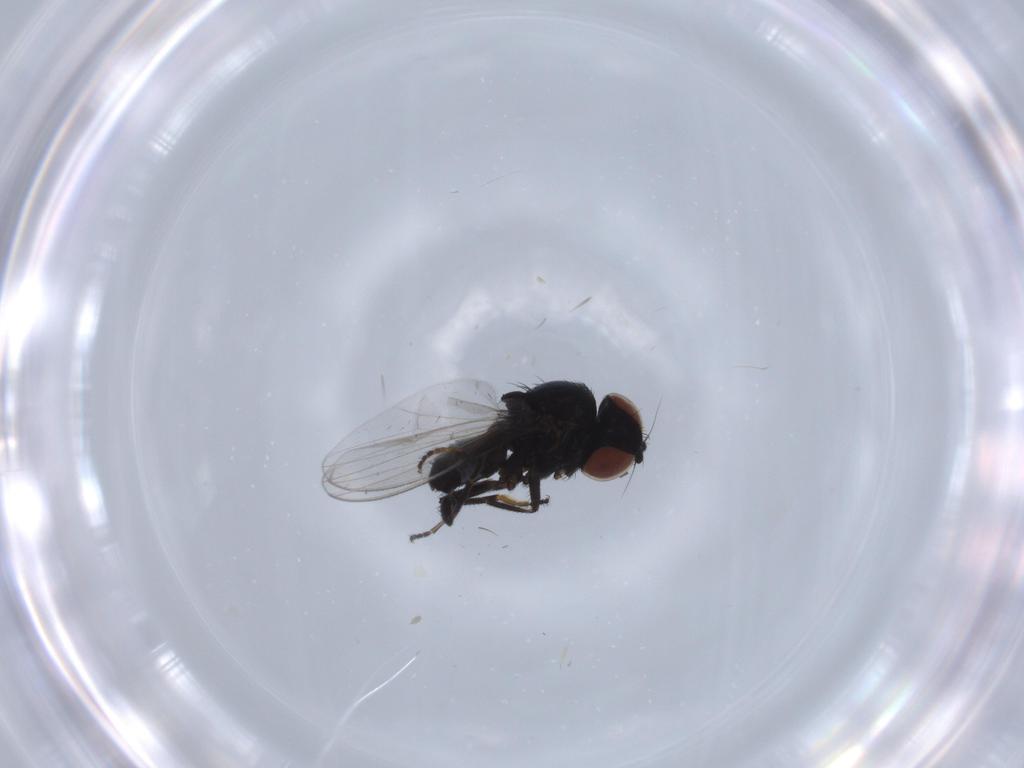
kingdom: Animalia
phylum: Arthropoda
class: Insecta
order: Diptera
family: Milichiidae
